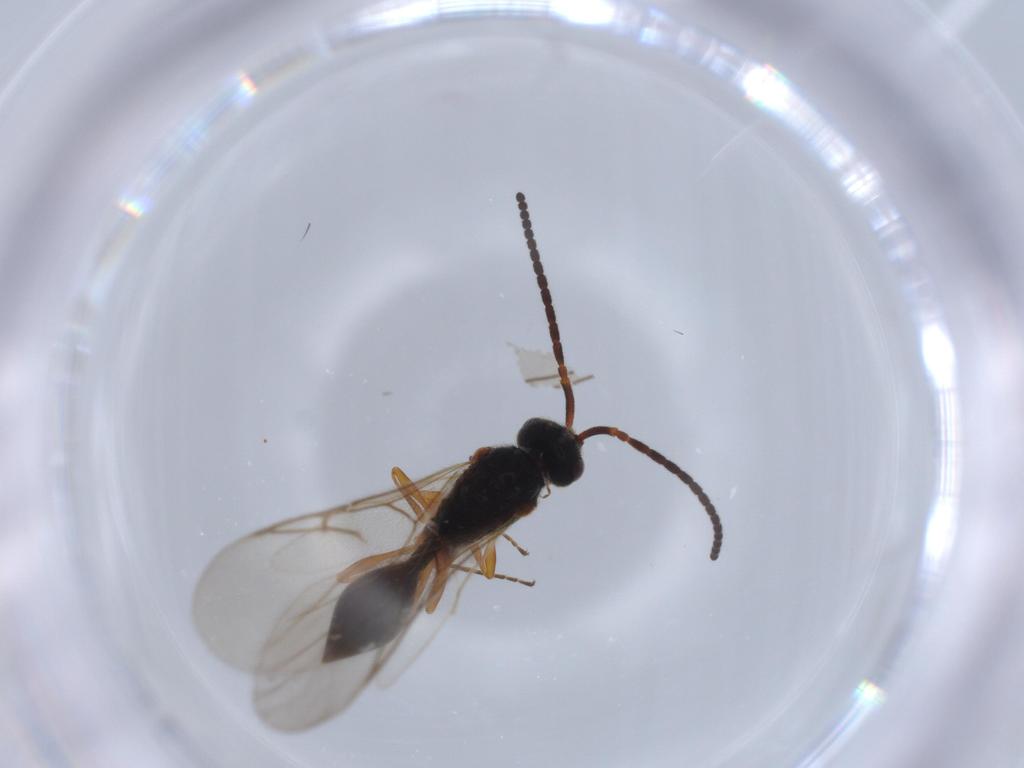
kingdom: Animalia
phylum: Arthropoda
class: Insecta
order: Hymenoptera
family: Diapriidae
